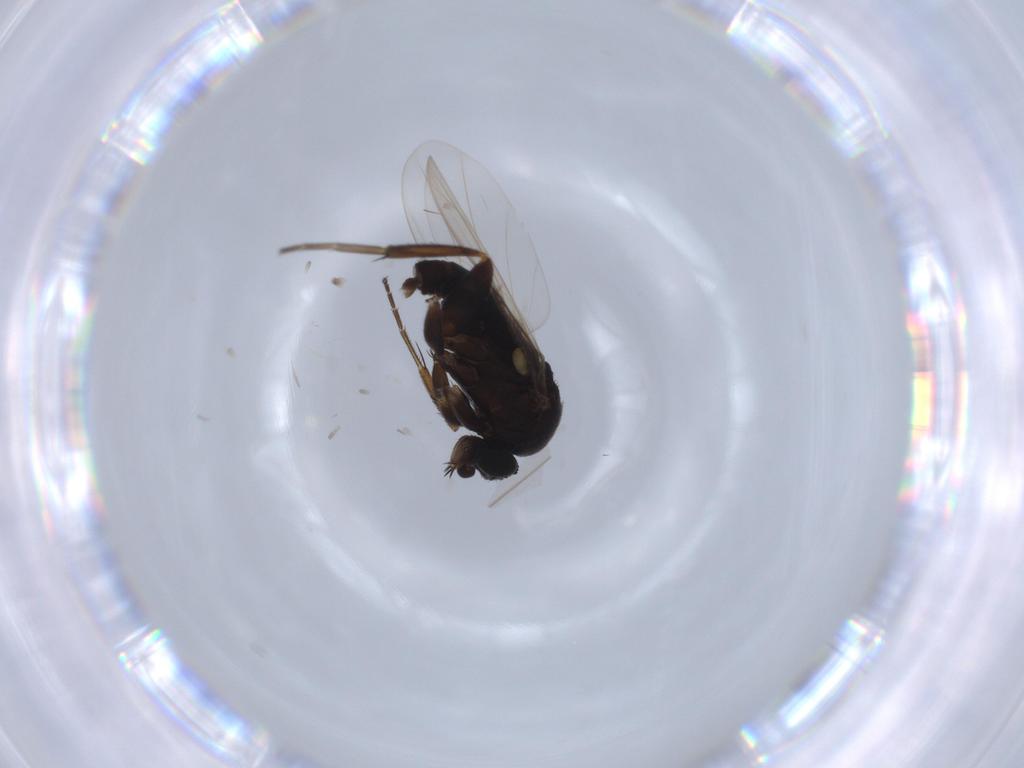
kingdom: Animalia
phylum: Arthropoda
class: Insecta
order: Diptera
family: Phoridae
